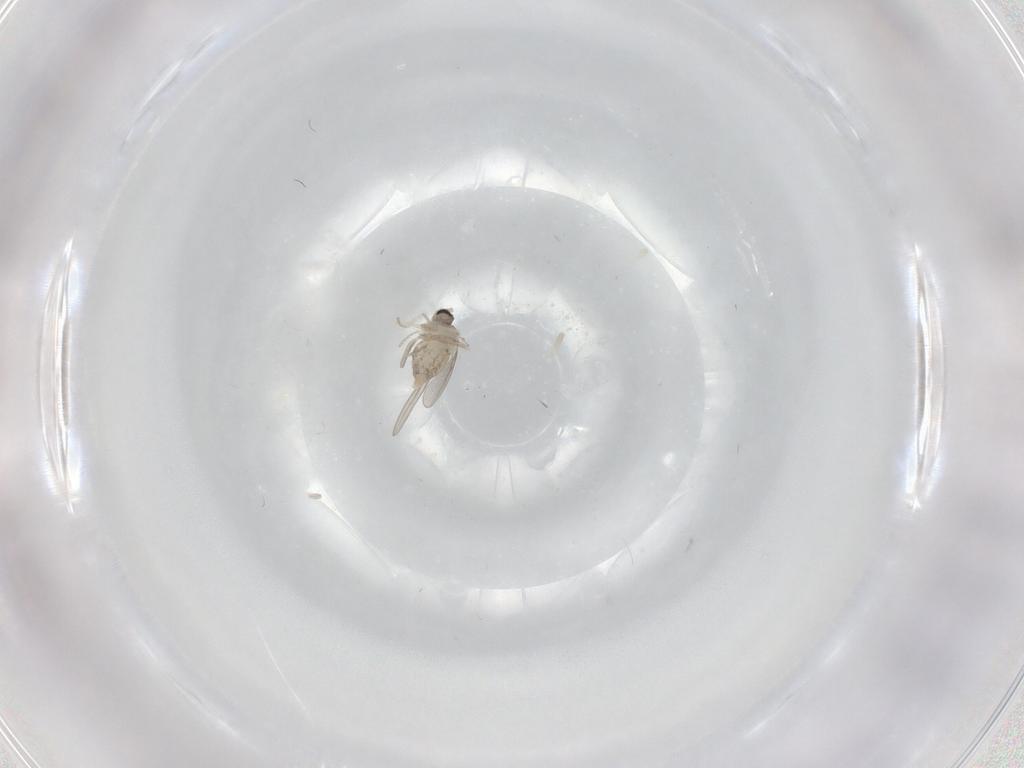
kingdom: Animalia
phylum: Arthropoda
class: Insecta
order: Diptera
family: Cecidomyiidae
